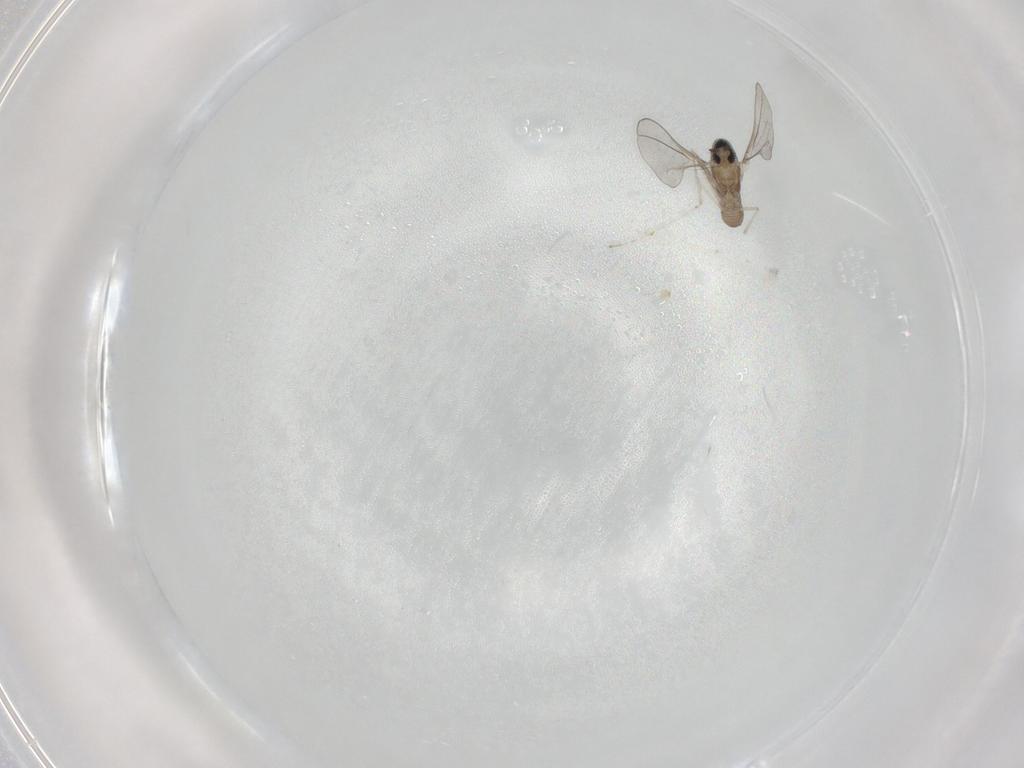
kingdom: Animalia
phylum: Arthropoda
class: Insecta
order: Diptera
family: Cecidomyiidae
